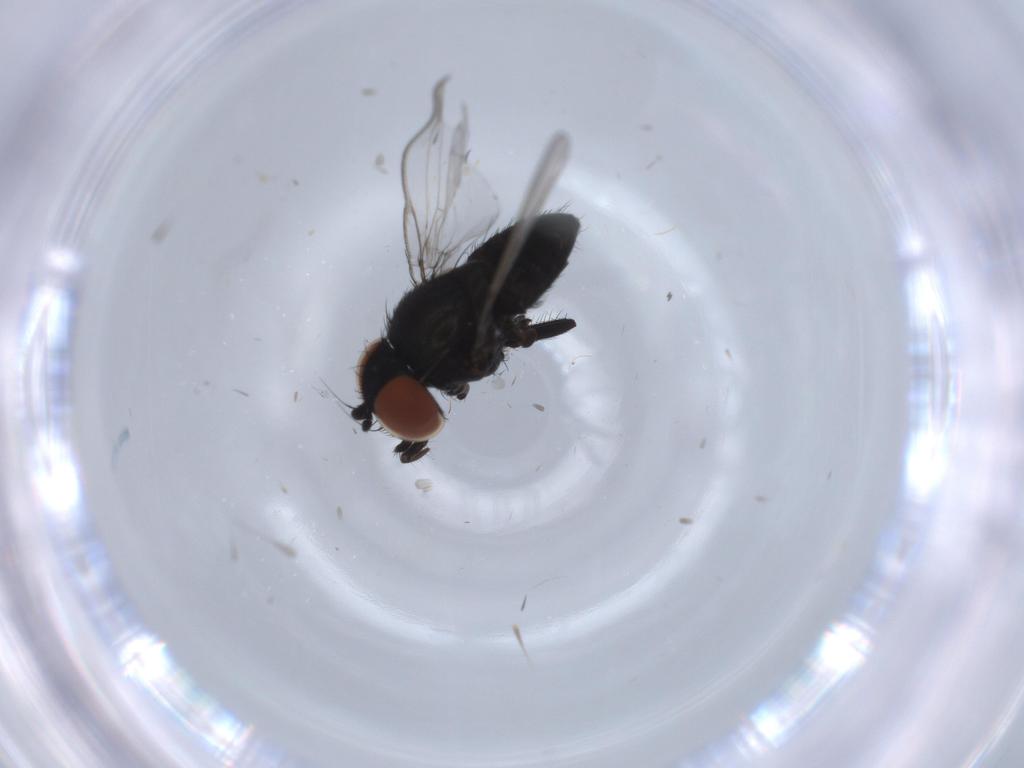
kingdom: Animalia
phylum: Arthropoda
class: Insecta
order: Diptera
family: Milichiidae
